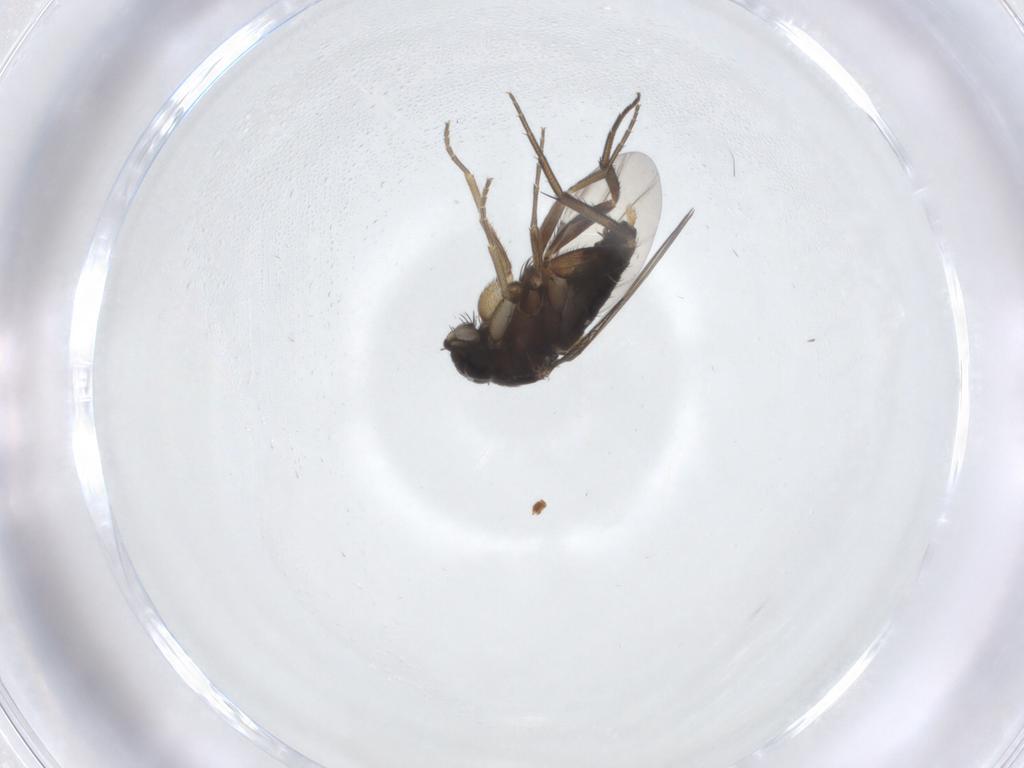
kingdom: Animalia
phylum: Arthropoda
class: Insecta
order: Diptera
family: Phoridae
